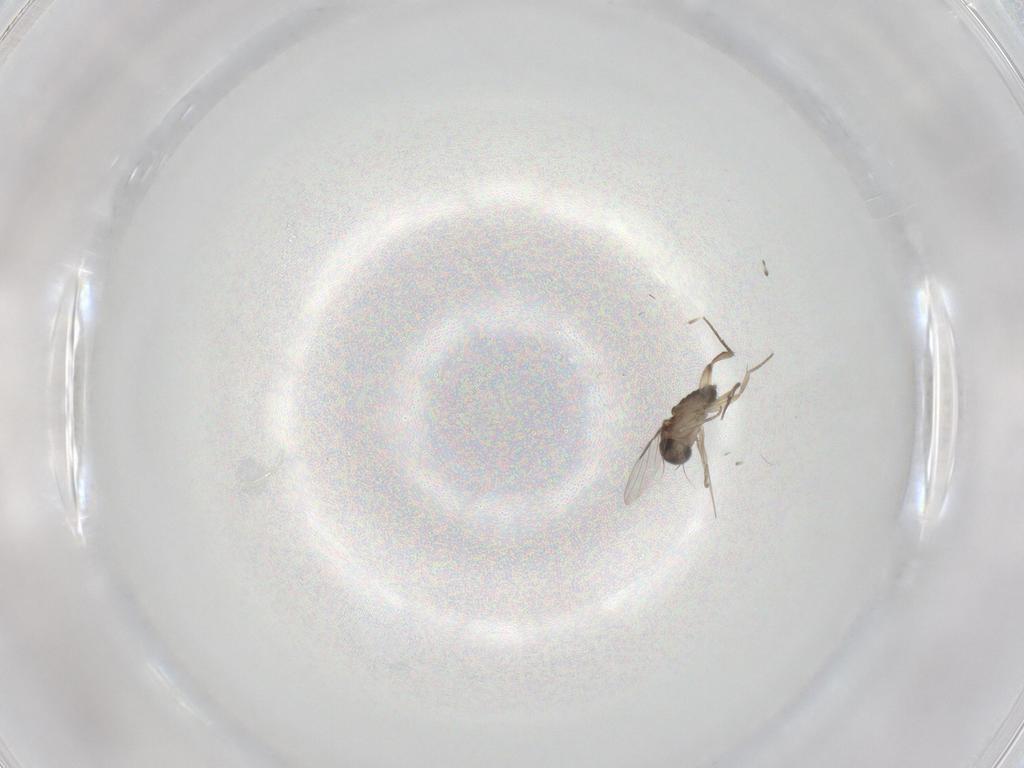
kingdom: Animalia
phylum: Arthropoda
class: Insecta
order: Diptera
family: Phoridae
